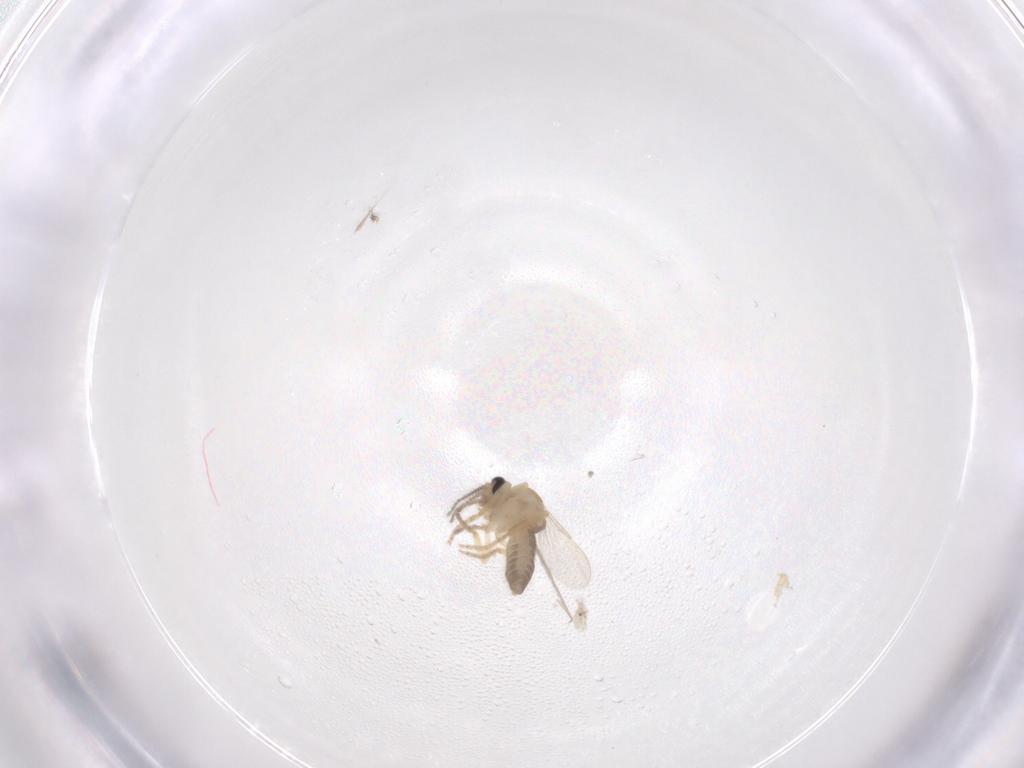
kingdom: Animalia
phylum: Arthropoda
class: Insecta
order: Diptera
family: Ceratopogonidae
